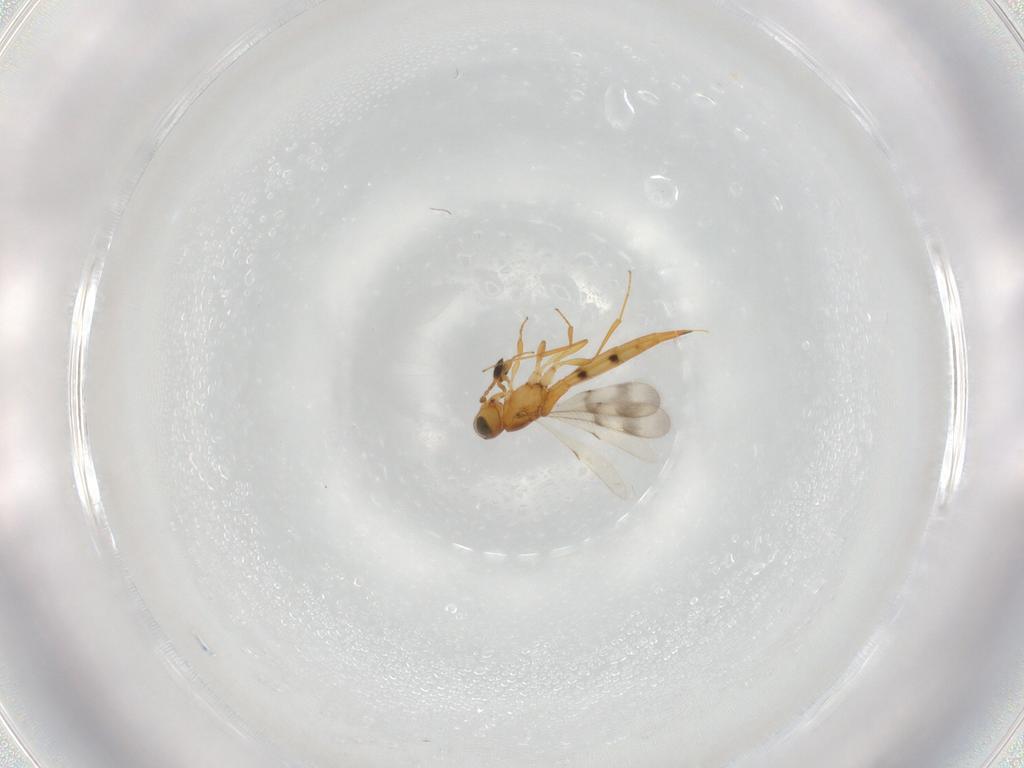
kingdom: Animalia
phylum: Arthropoda
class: Insecta
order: Hymenoptera
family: Scelionidae
